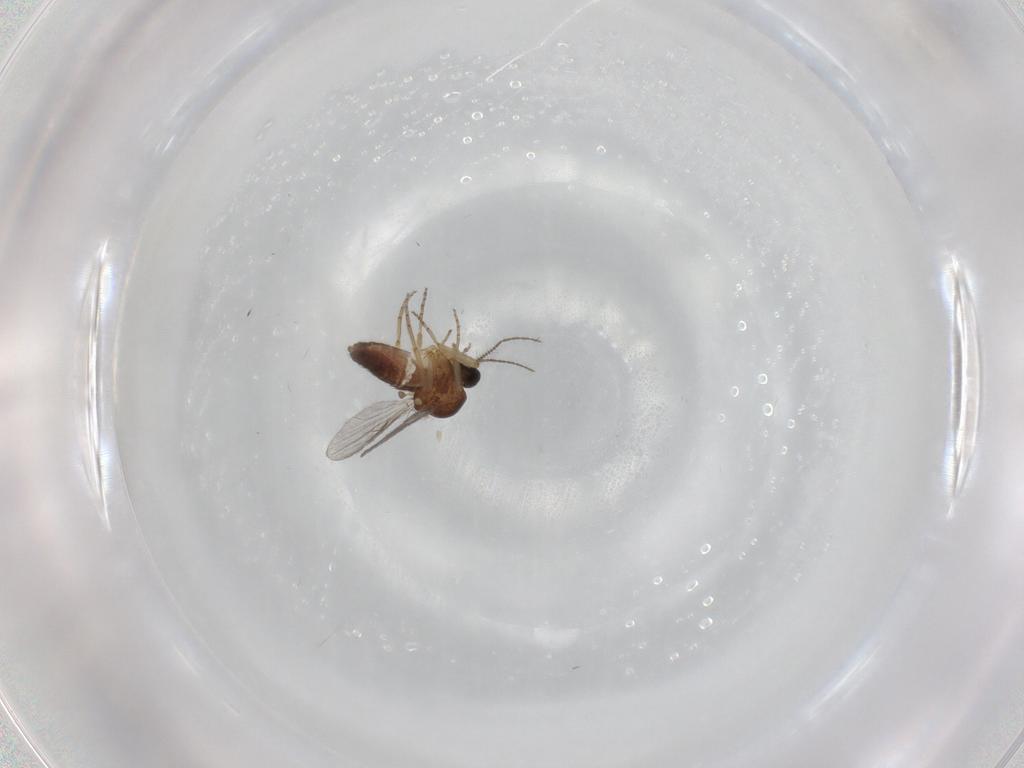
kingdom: Animalia
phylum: Arthropoda
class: Insecta
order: Diptera
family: Ceratopogonidae
